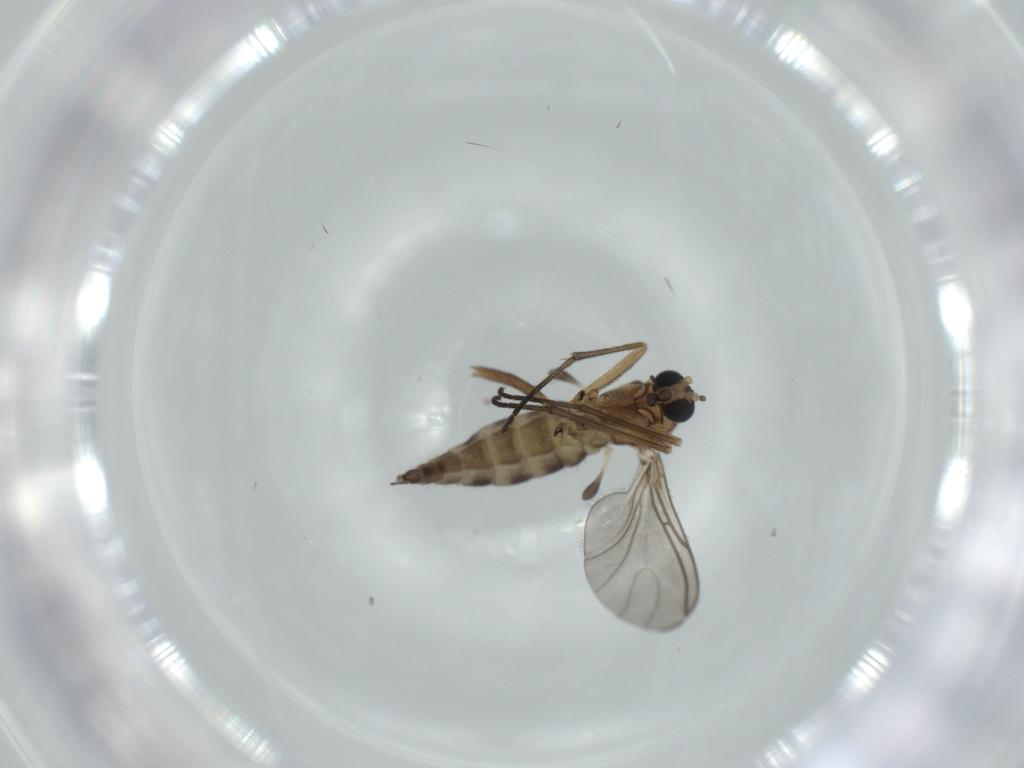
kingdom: Animalia
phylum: Arthropoda
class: Insecta
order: Diptera
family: Sciaridae
